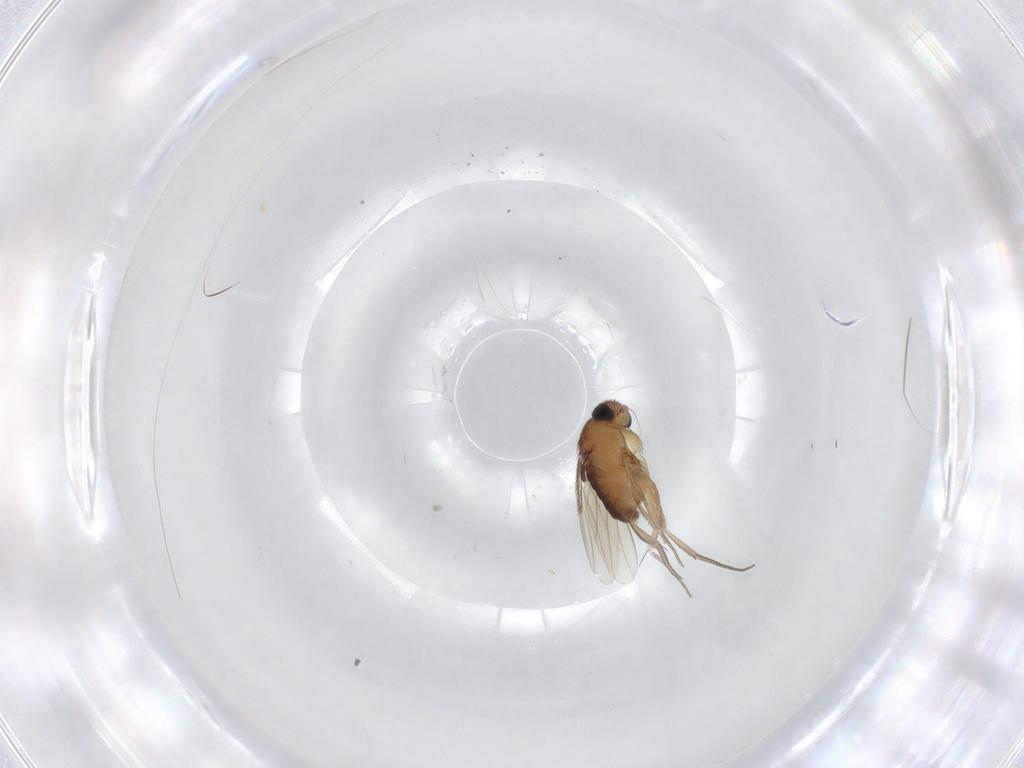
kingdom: Animalia
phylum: Arthropoda
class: Insecta
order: Diptera
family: Phoridae
